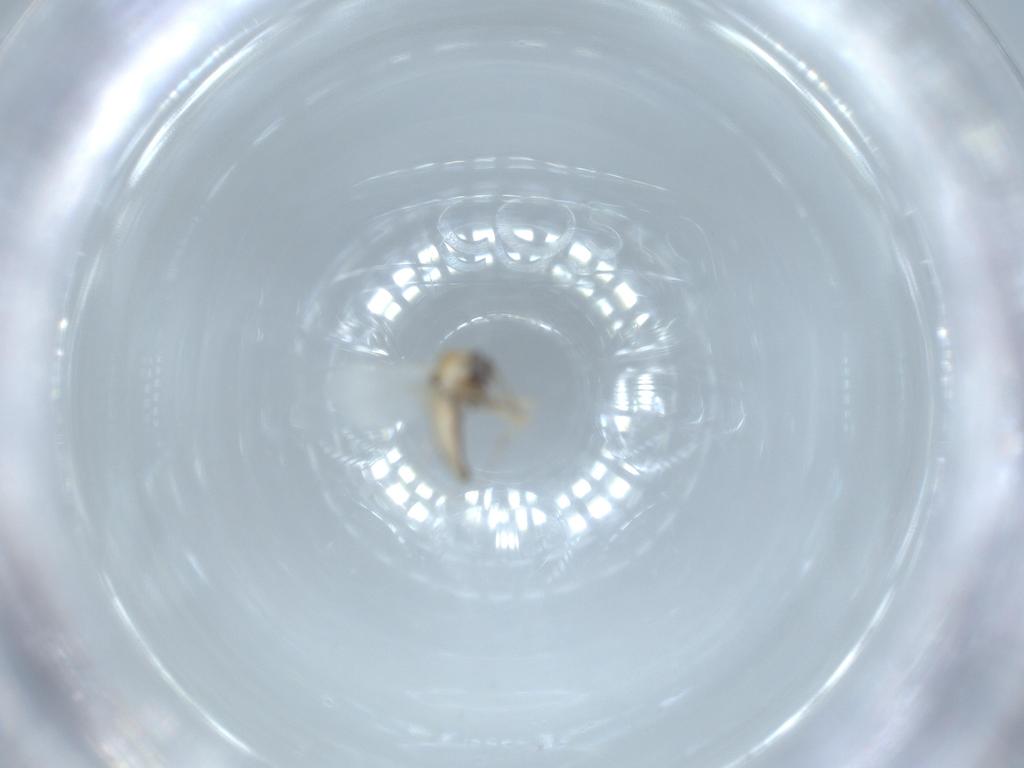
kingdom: Animalia
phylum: Arthropoda
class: Insecta
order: Diptera
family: Ceratopogonidae
